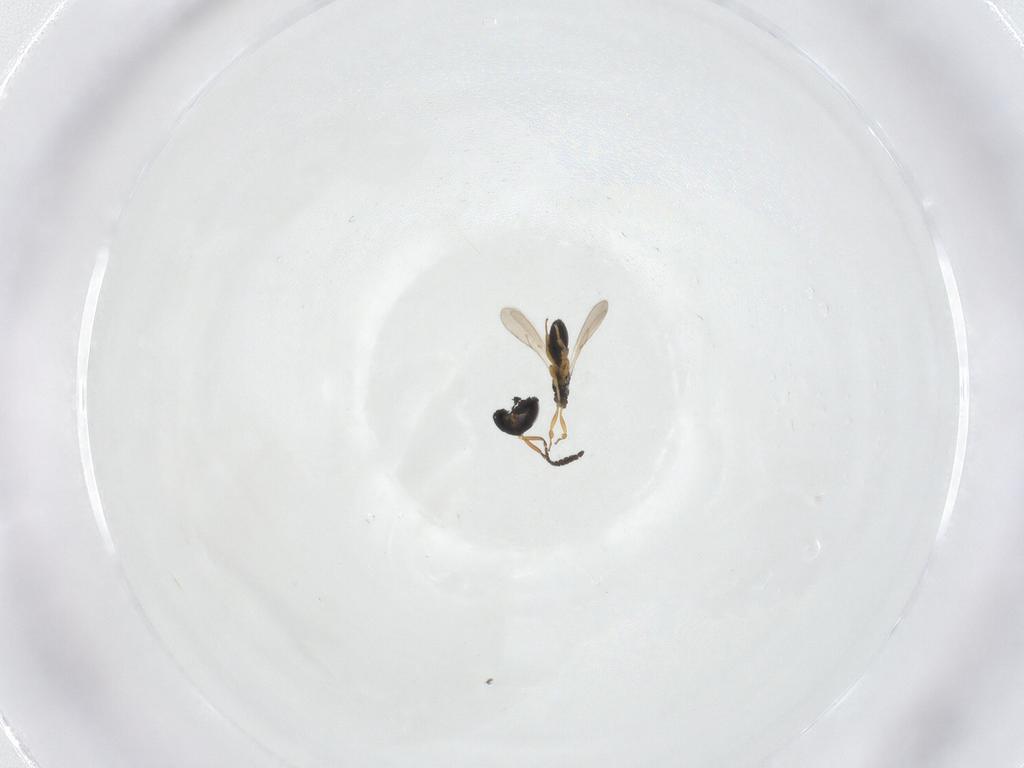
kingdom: Animalia
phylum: Arthropoda
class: Insecta
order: Hymenoptera
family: Scelionidae
